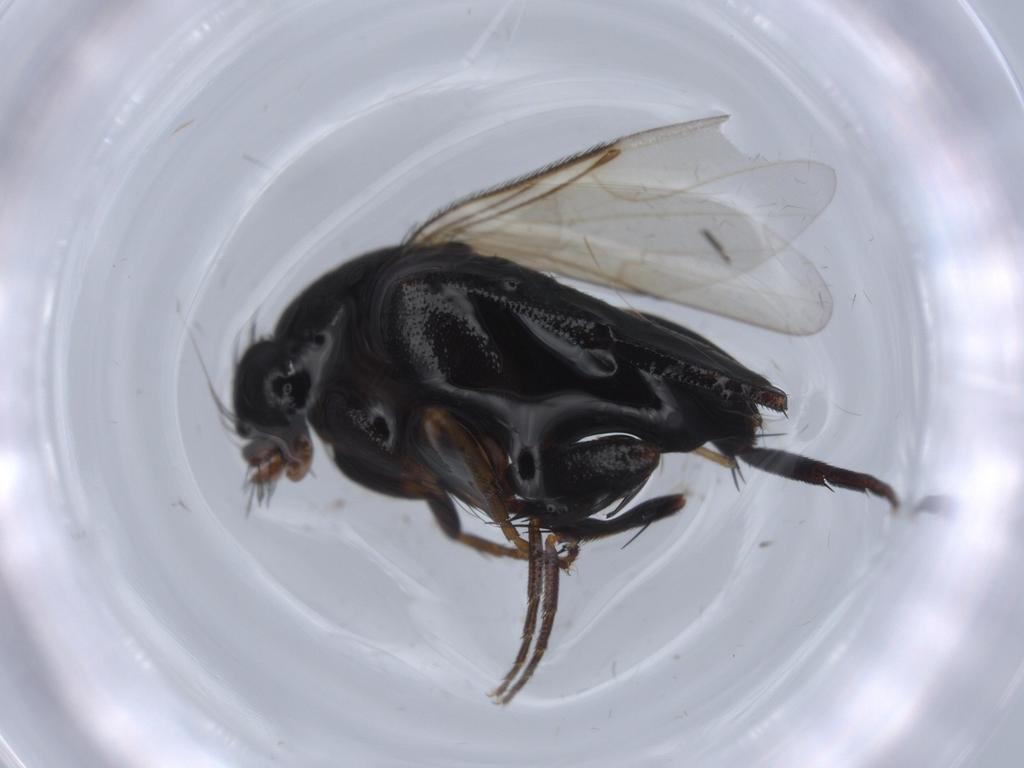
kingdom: Animalia
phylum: Arthropoda
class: Insecta
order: Diptera
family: Phoridae
